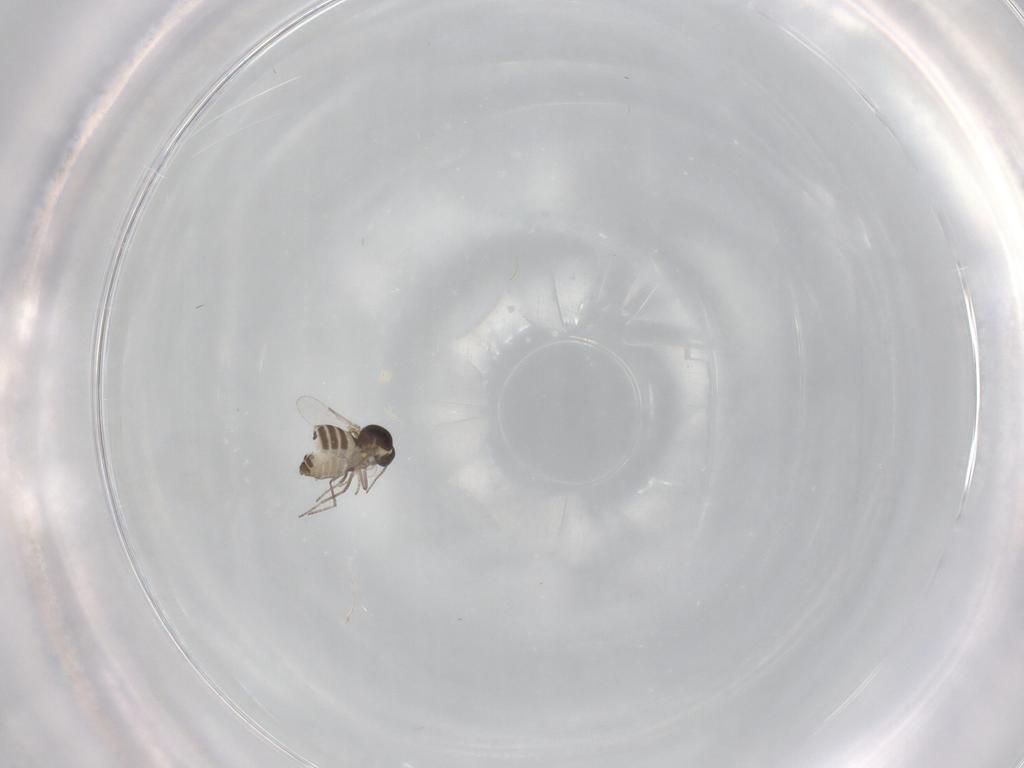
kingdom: Animalia
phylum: Arthropoda
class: Insecta
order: Diptera
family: Ceratopogonidae
